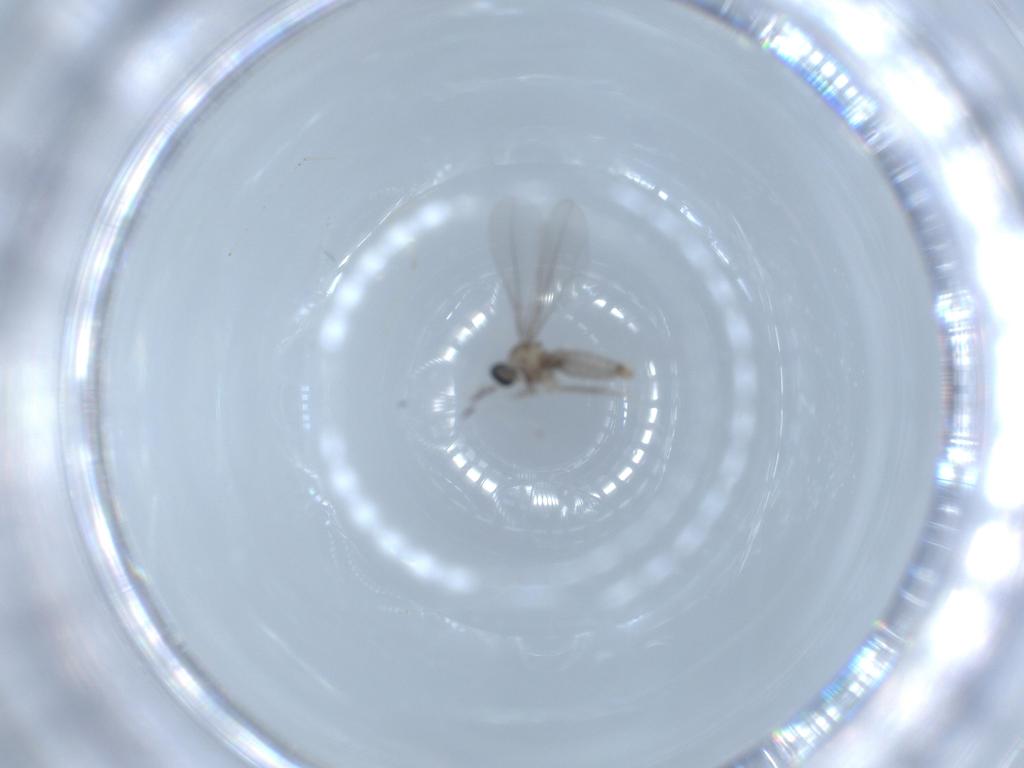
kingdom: Animalia
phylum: Arthropoda
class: Insecta
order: Diptera
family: Cecidomyiidae
